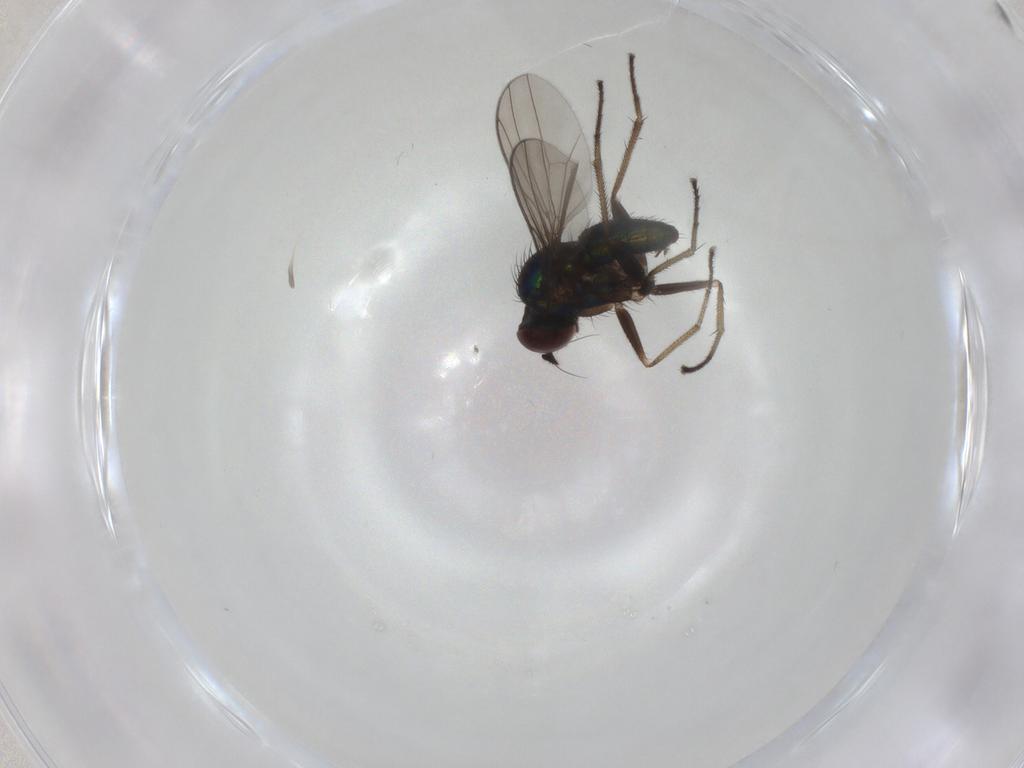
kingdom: Animalia
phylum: Arthropoda
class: Insecta
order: Diptera
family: Dolichopodidae
